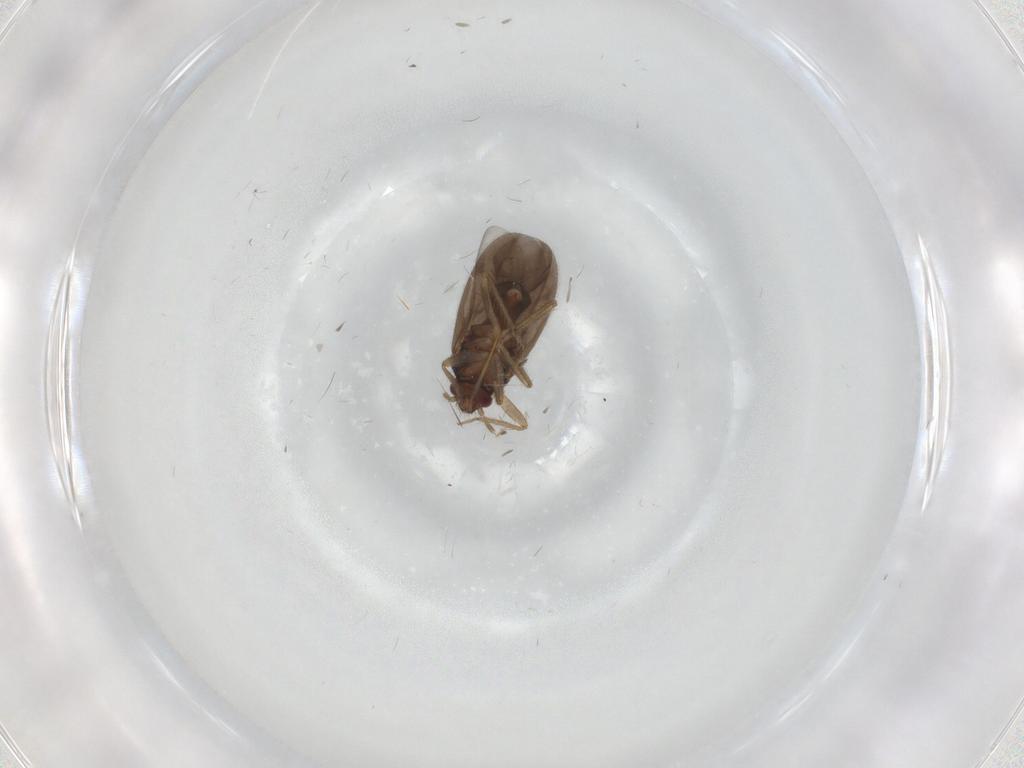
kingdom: Animalia
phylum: Arthropoda
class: Insecta
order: Hemiptera
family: Ceratocombidae
